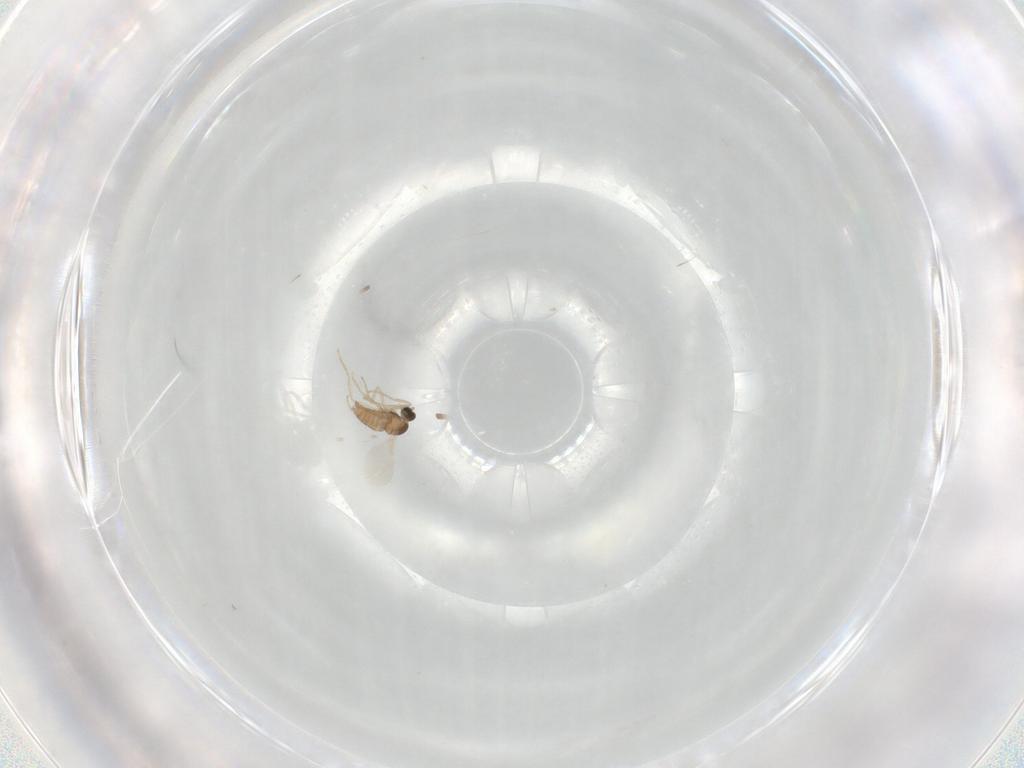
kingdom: Animalia
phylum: Arthropoda
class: Insecta
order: Diptera
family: Cecidomyiidae
